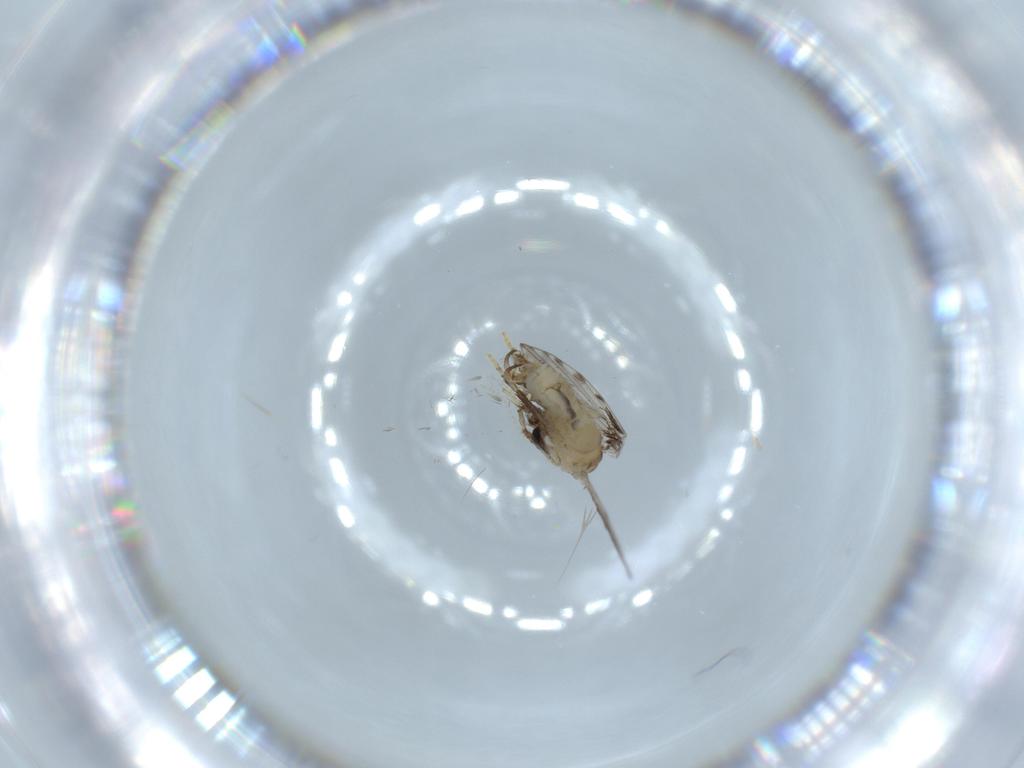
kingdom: Animalia
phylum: Arthropoda
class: Insecta
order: Diptera
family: Psychodidae
